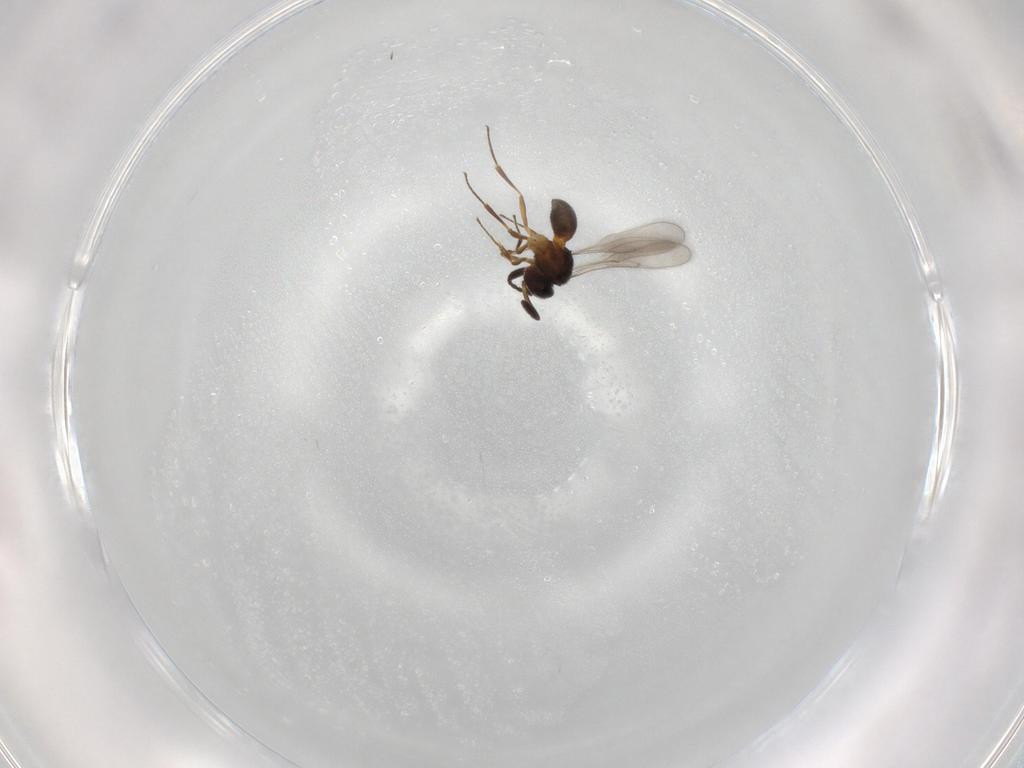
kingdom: Animalia
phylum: Arthropoda
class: Insecta
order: Hymenoptera
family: Scelionidae
